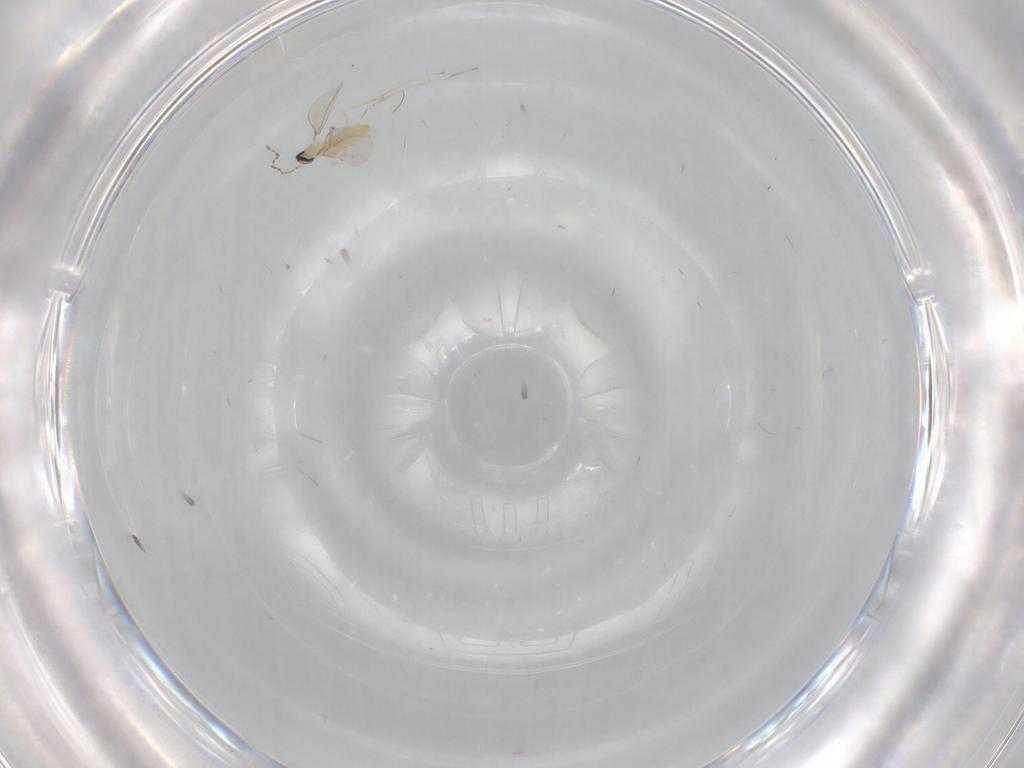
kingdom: Animalia
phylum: Arthropoda
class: Insecta
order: Diptera
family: Cecidomyiidae
